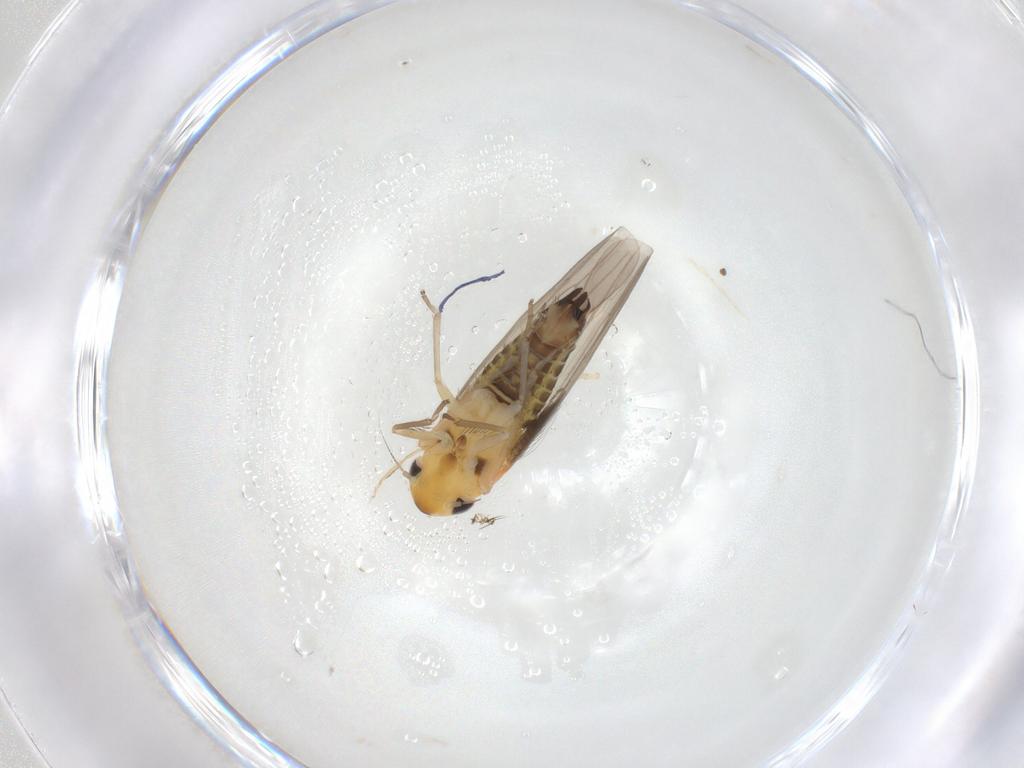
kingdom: Animalia
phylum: Arthropoda
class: Insecta
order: Hemiptera
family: Cicadellidae
